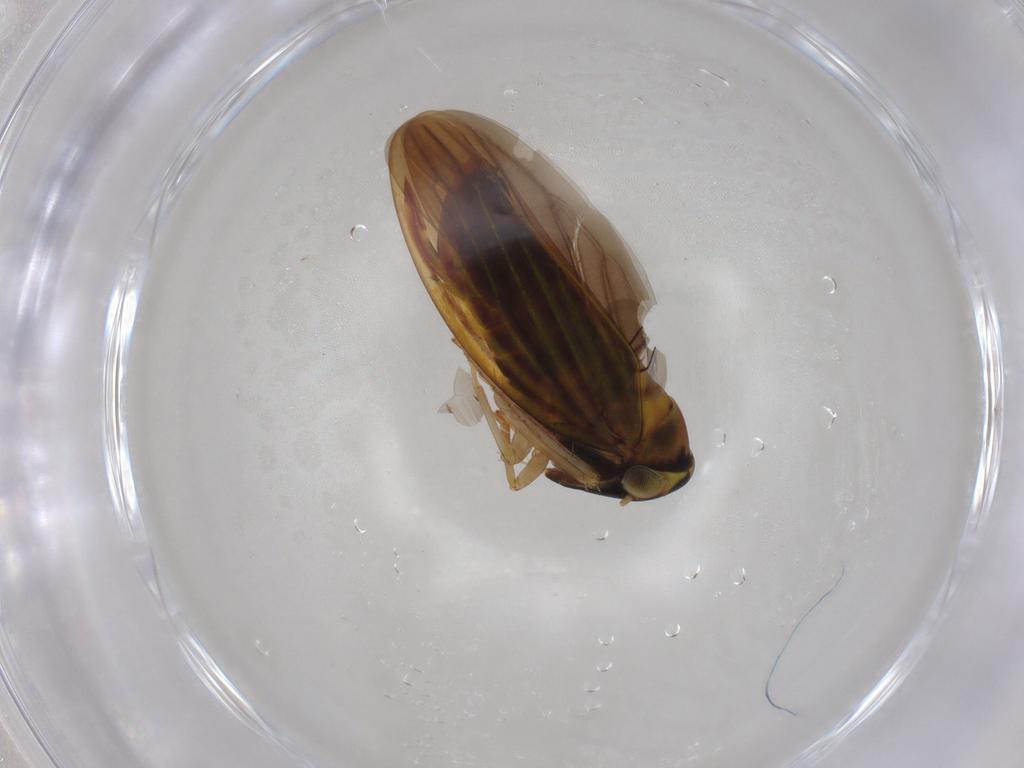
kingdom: Animalia
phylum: Arthropoda
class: Insecta
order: Hemiptera
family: Cicadellidae
